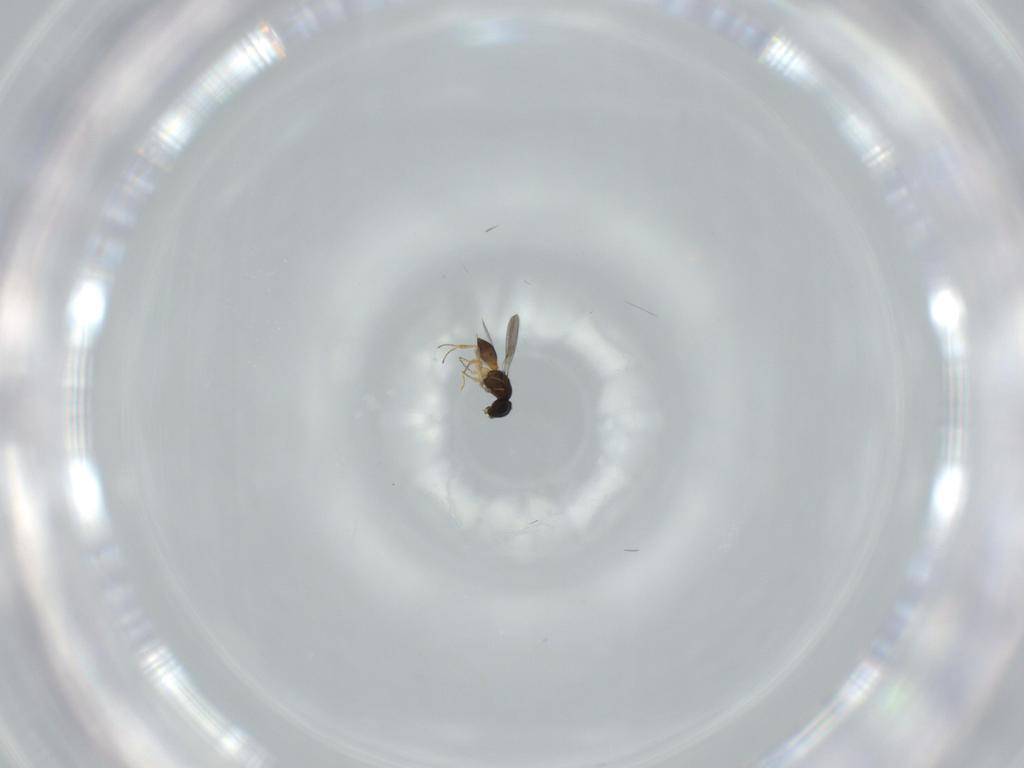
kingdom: Animalia
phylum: Arthropoda
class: Insecta
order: Hymenoptera
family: Scelionidae
